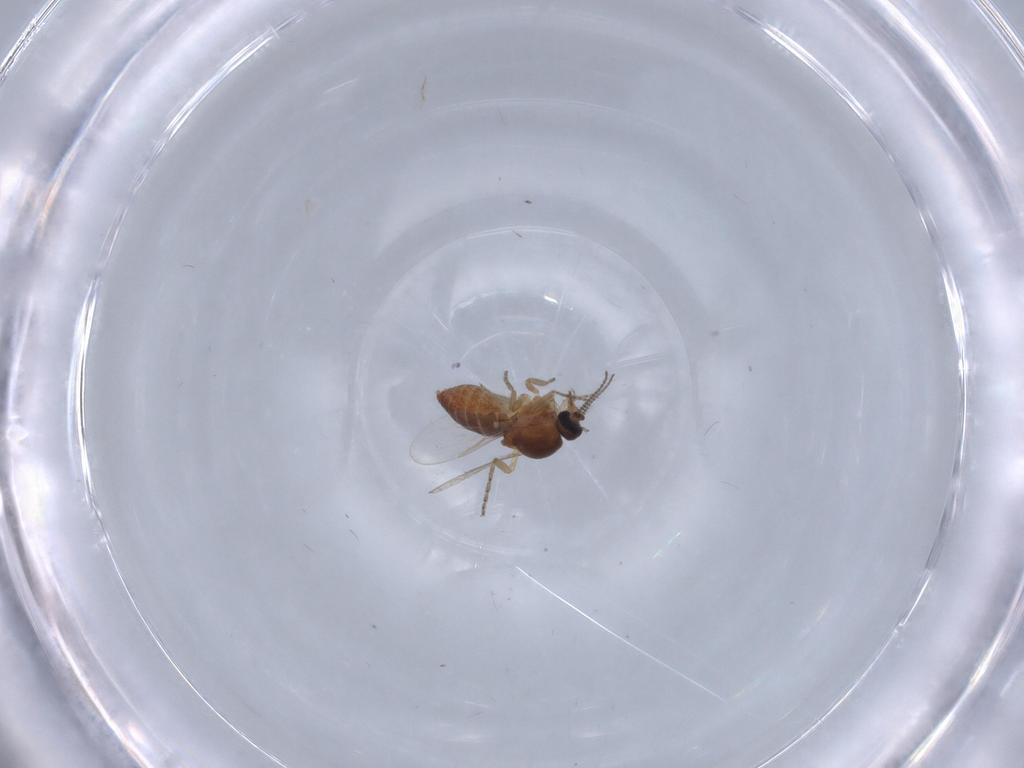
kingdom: Animalia
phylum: Arthropoda
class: Insecta
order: Diptera
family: Ceratopogonidae
